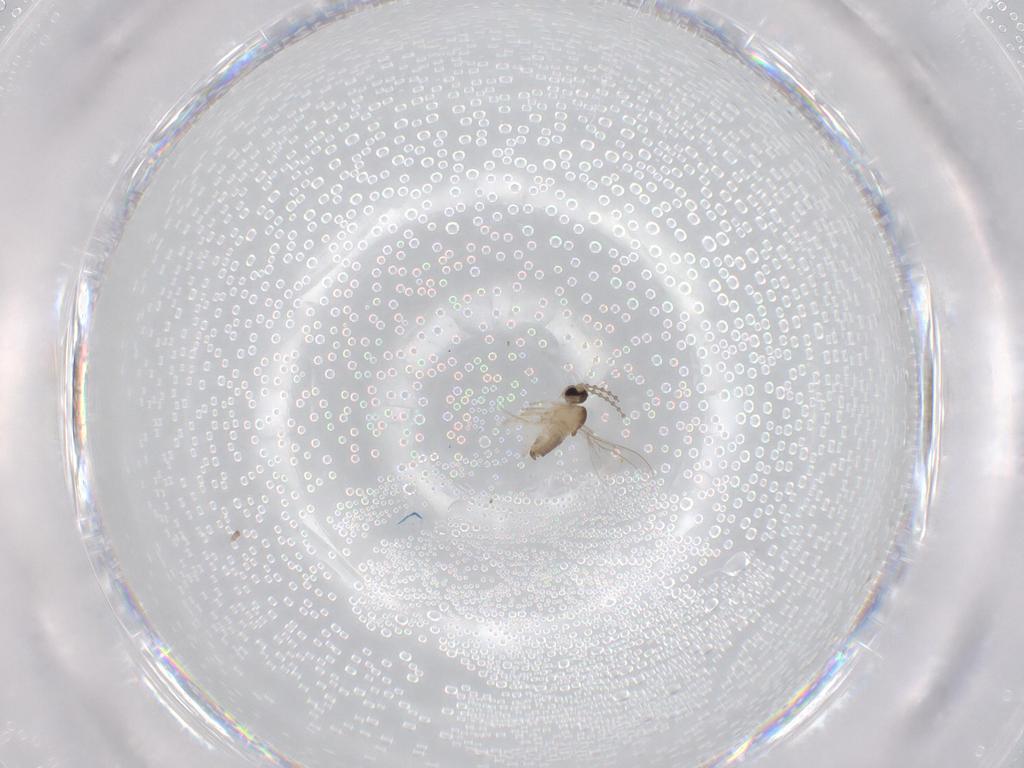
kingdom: Animalia
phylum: Arthropoda
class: Insecta
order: Diptera
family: Cecidomyiidae
